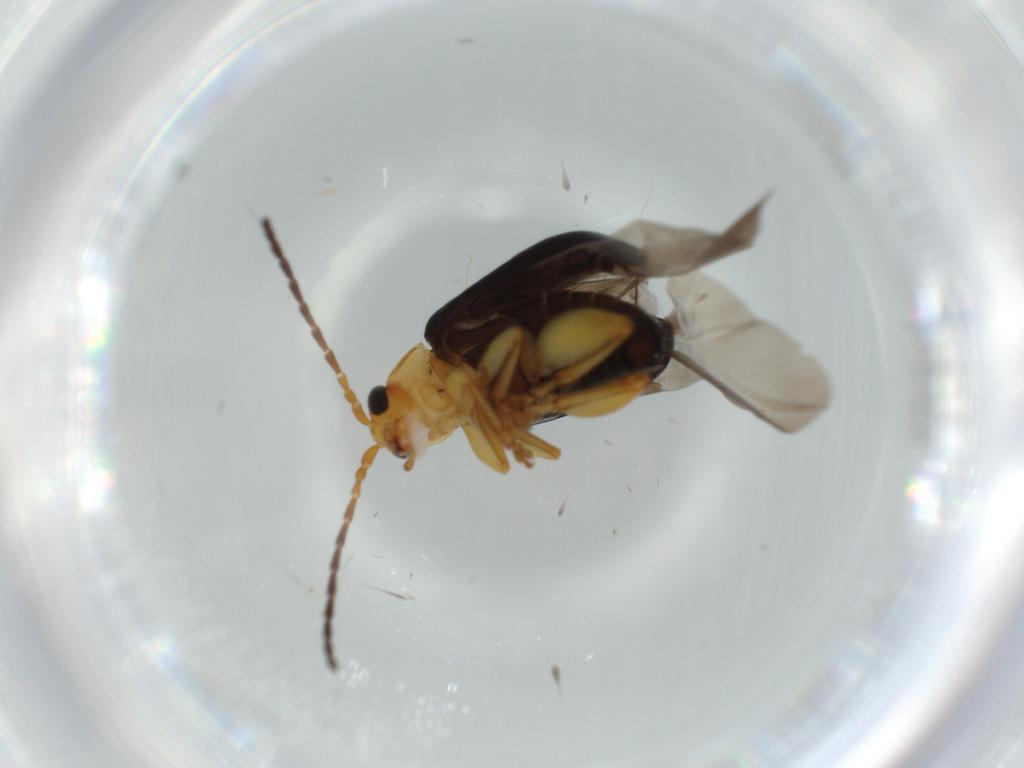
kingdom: Animalia
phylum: Arthropoda
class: Insecta
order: Coleoptera
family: Chrysomelidae
